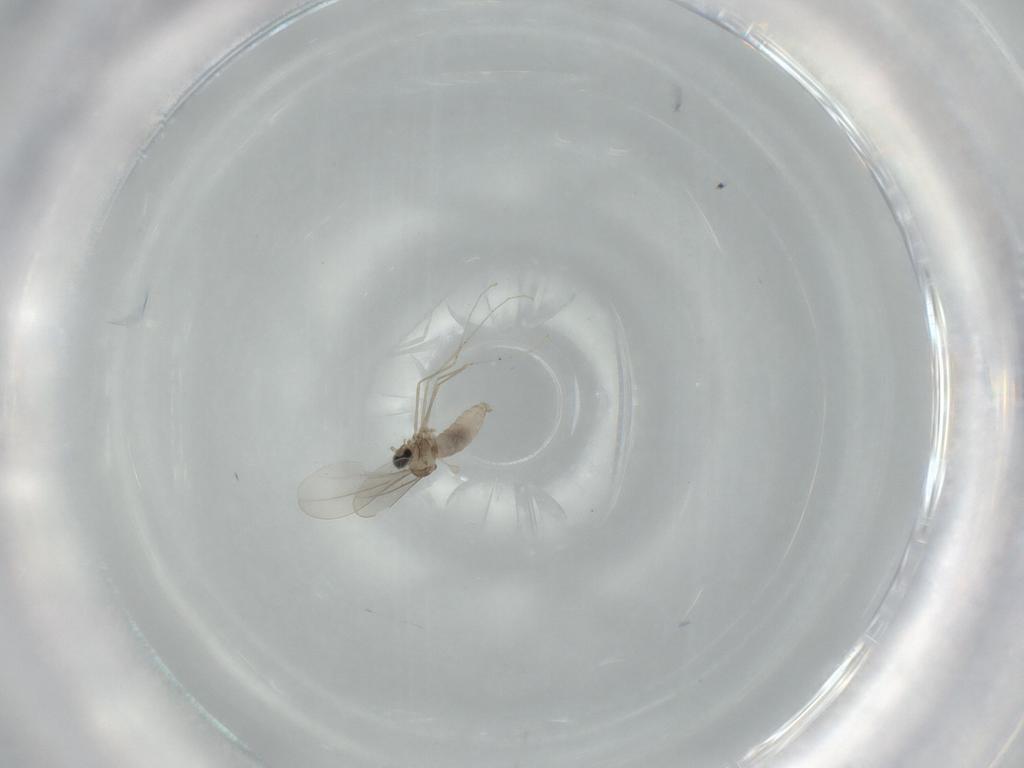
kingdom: Animalia
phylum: Arthropoda
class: Insecta
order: Diptera
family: Cecidomyiidae
